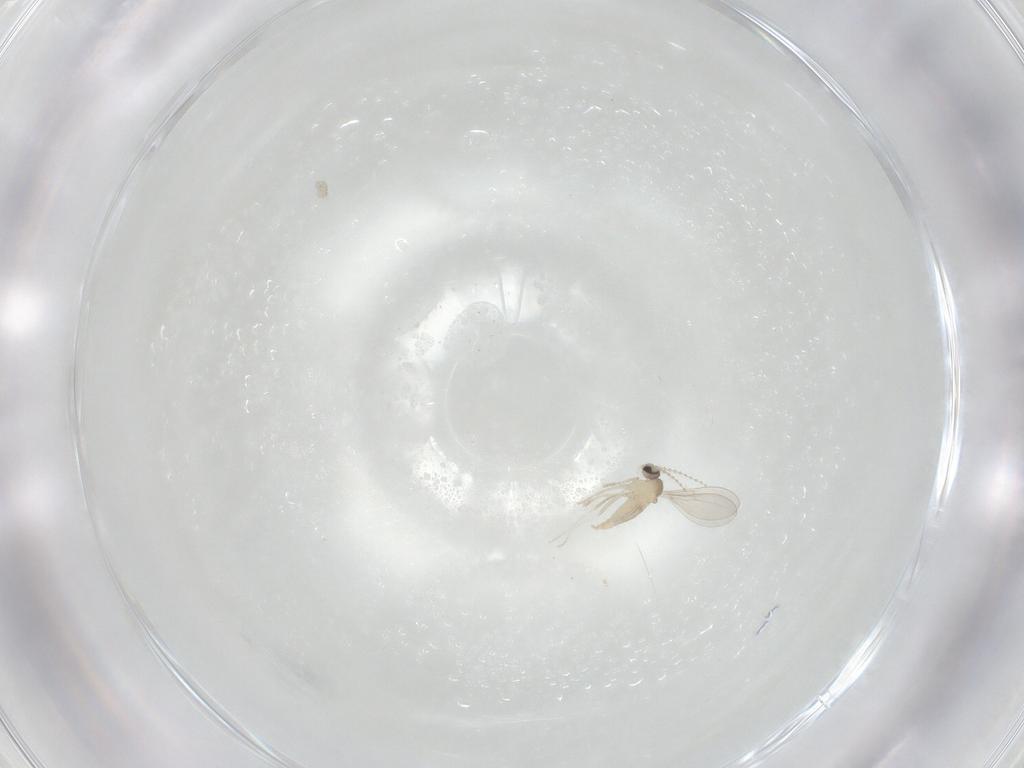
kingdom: Animalia
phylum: Arthropoda
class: Insecta
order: Diptera
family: Cecidomyiidae
